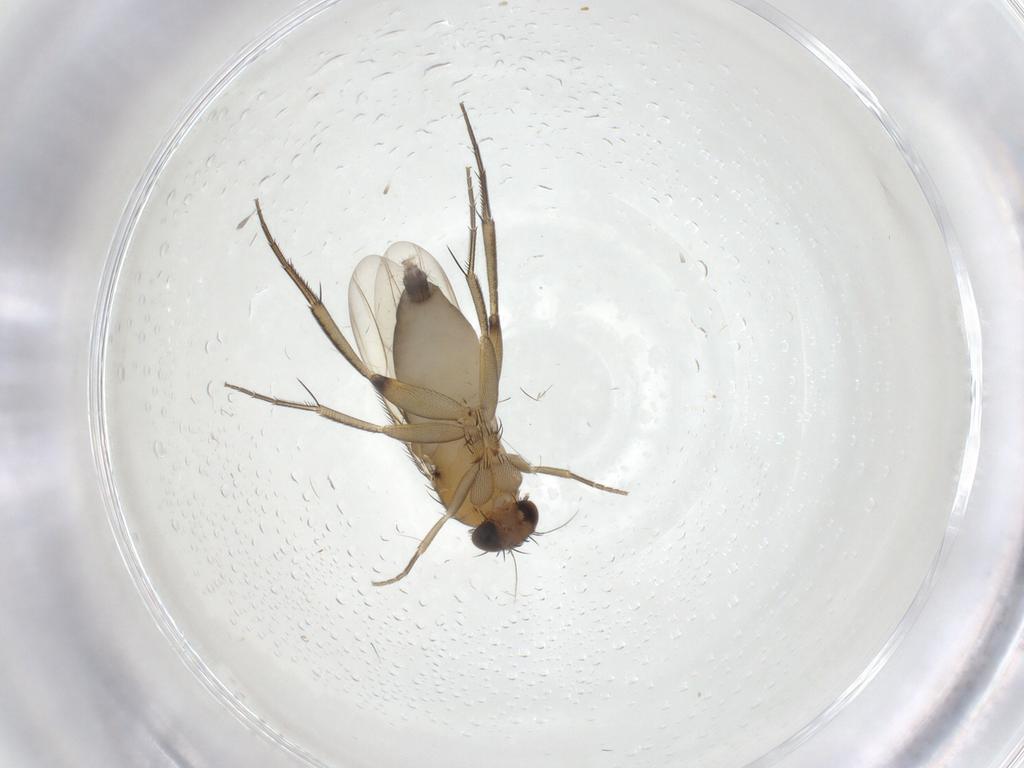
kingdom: Animalia
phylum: Arthropoda
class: Insecta
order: Diptera
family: Phoridae
